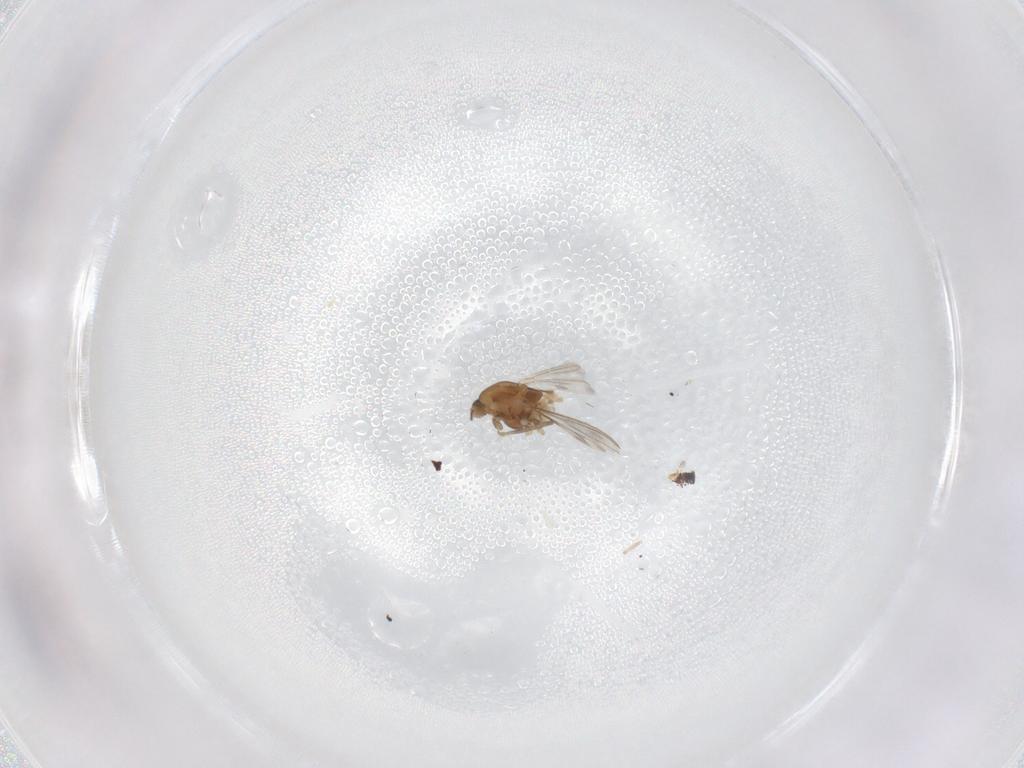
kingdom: Animalia
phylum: Arthropoda
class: Insecta
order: Diptera
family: Chironomidae
